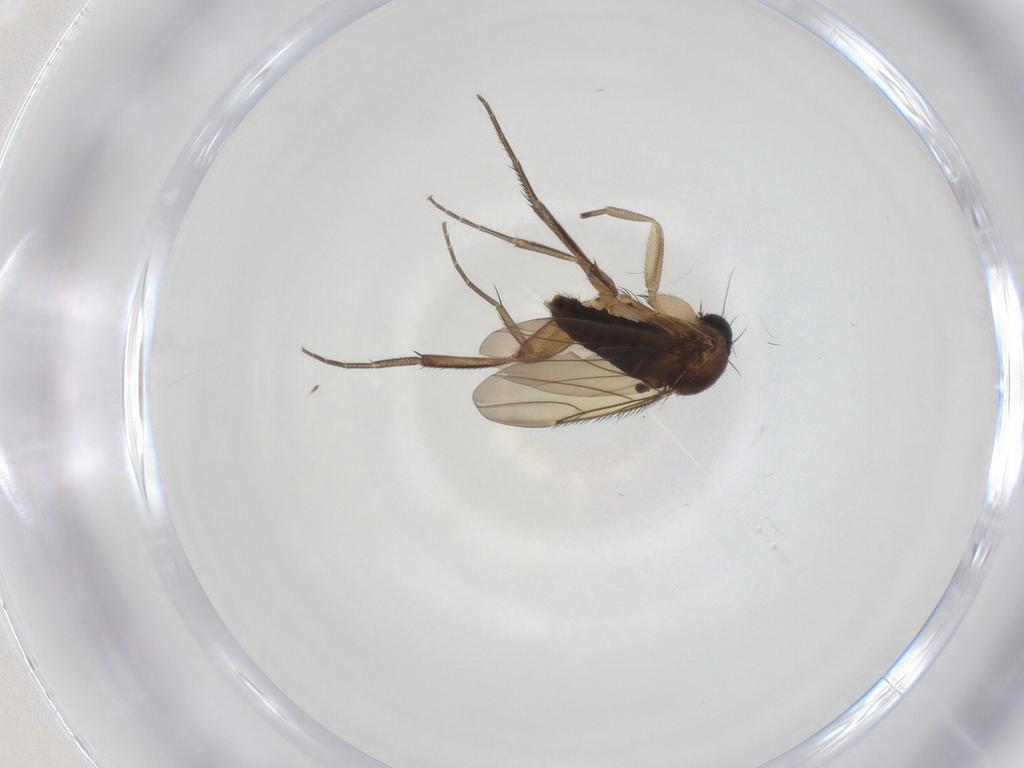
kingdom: Animalia
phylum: Arthropoda
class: Insecta
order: Diptera
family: Phoridae
